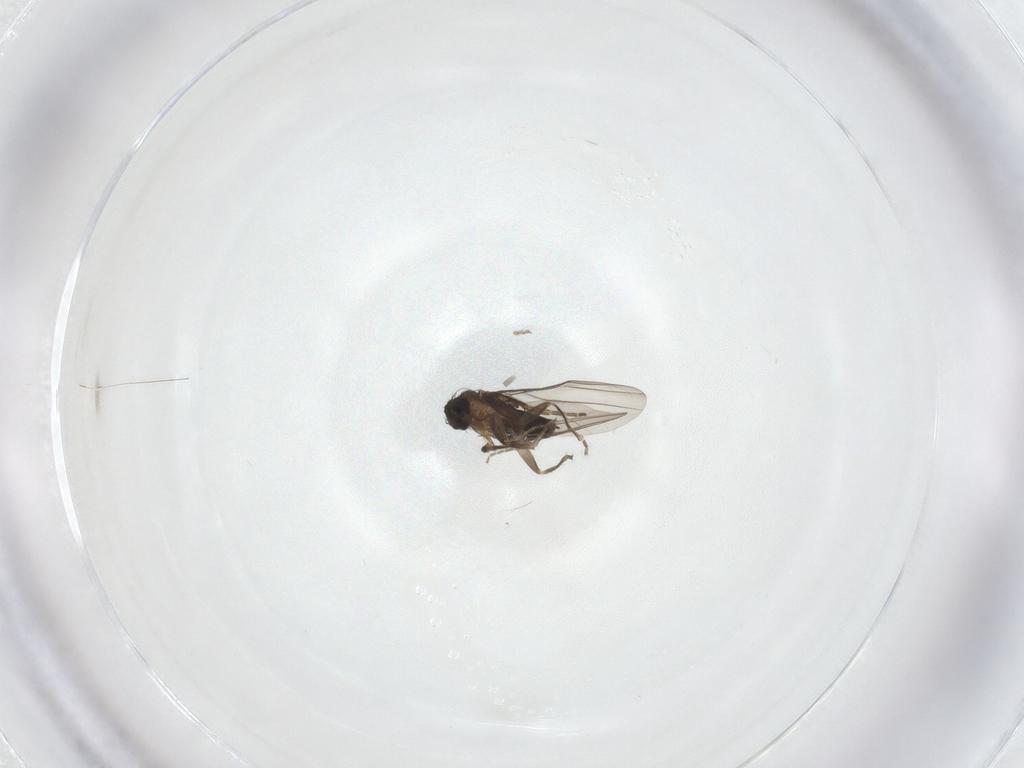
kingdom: Animalia
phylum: Arthropoda
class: Insecta
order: Diptera
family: Phoridae
